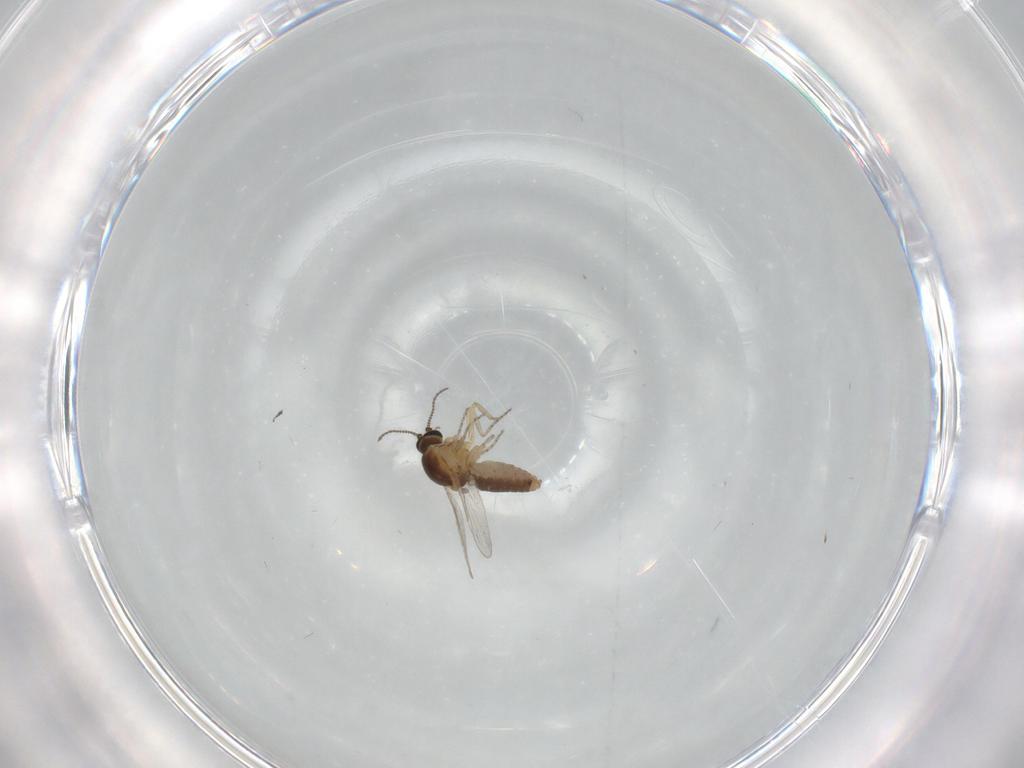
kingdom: Animalia
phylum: Arthropoda
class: Insecta
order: Diptera
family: Ceratopogonidae
